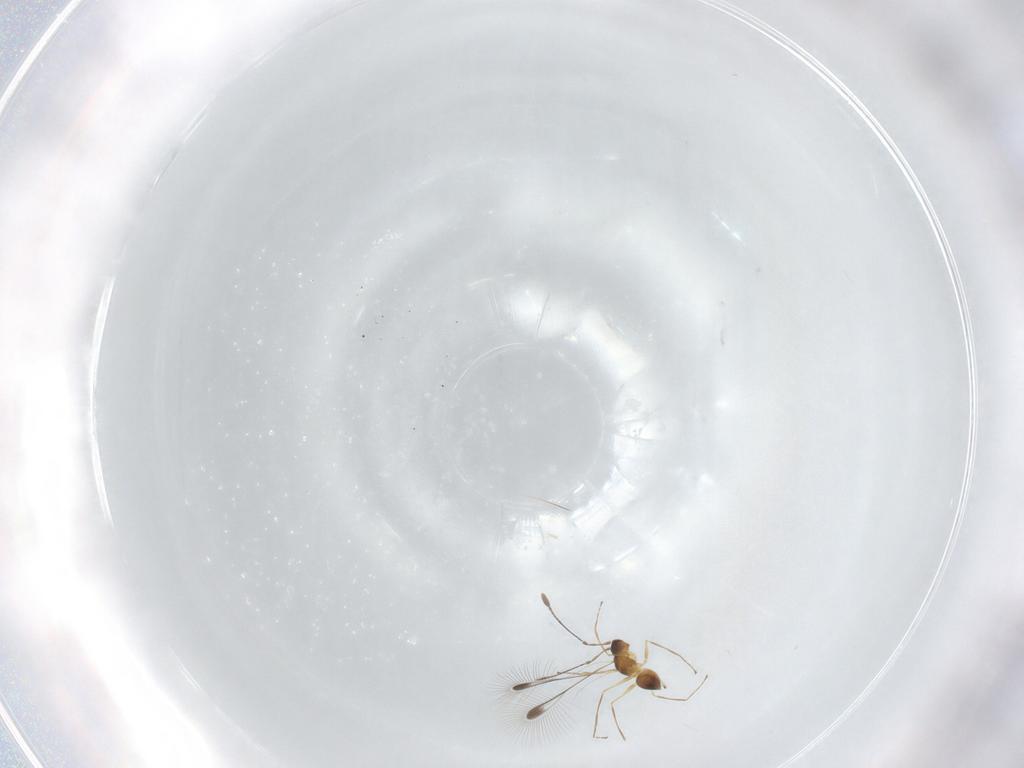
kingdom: Animalia
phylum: Arthropoda
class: Insecta
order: Hymenoptera
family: Mymaridae
